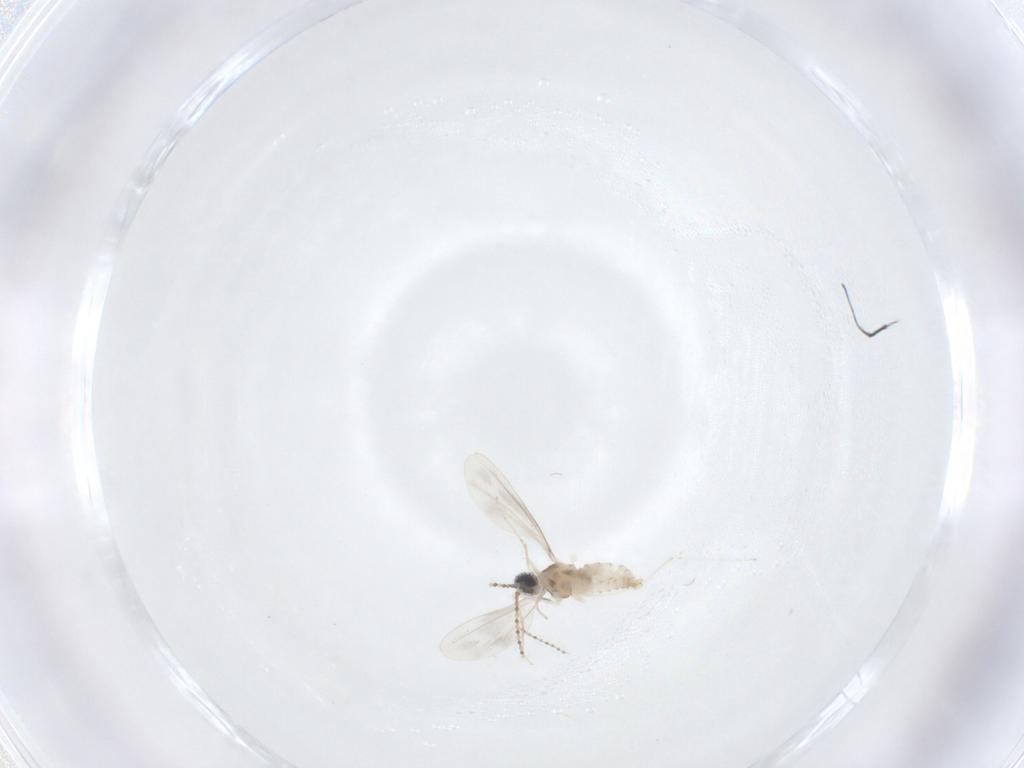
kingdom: Animalia
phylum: Arthropoda
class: Insecta
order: Diptera
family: Cecidomyiidae
